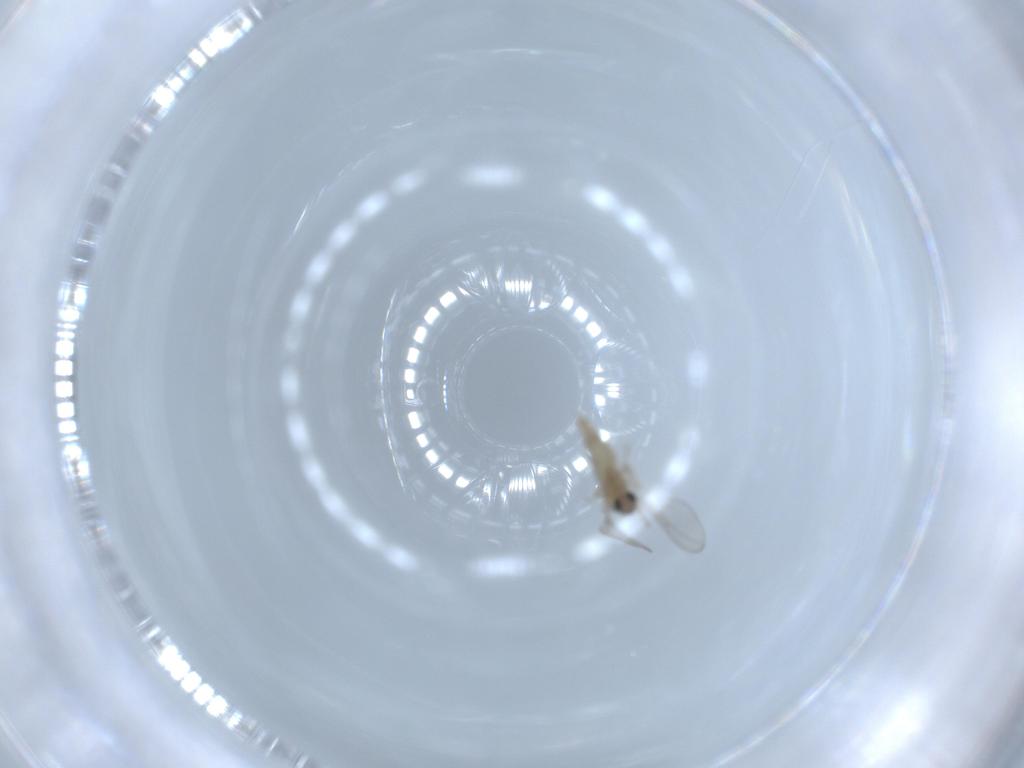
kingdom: Animalia
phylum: Arthropoda
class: Insecta
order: Diptera
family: Cecidomyiidae
